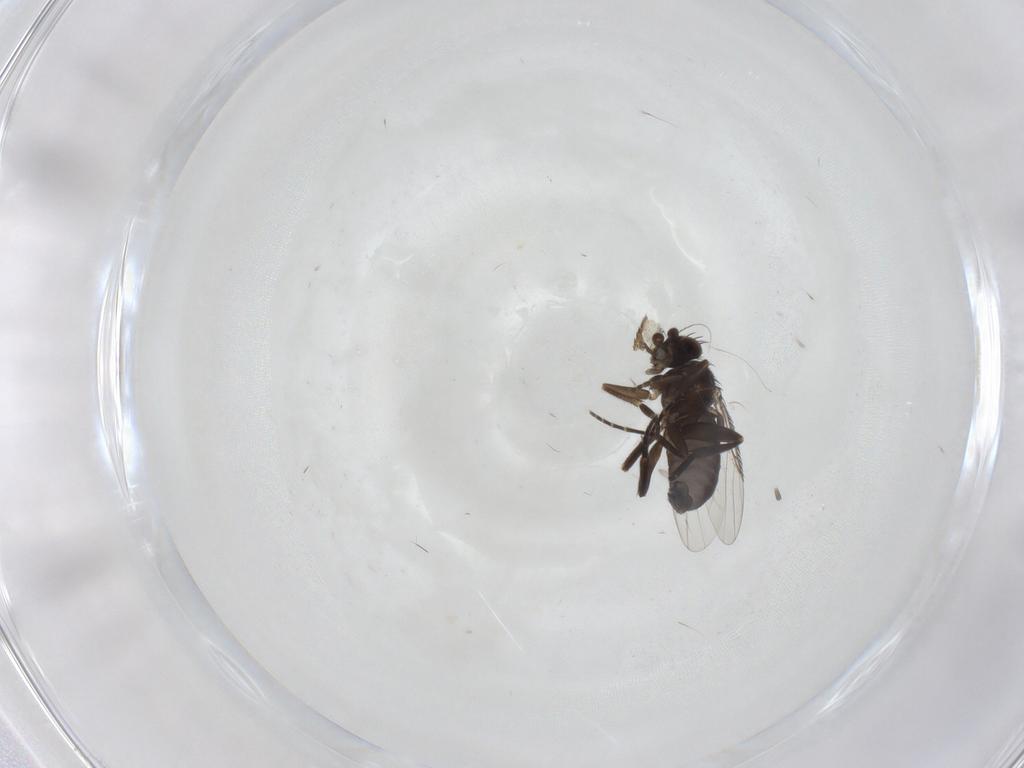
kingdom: Animalia
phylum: Arthropoda
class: Insecta
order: Diptera
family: Phoridae
